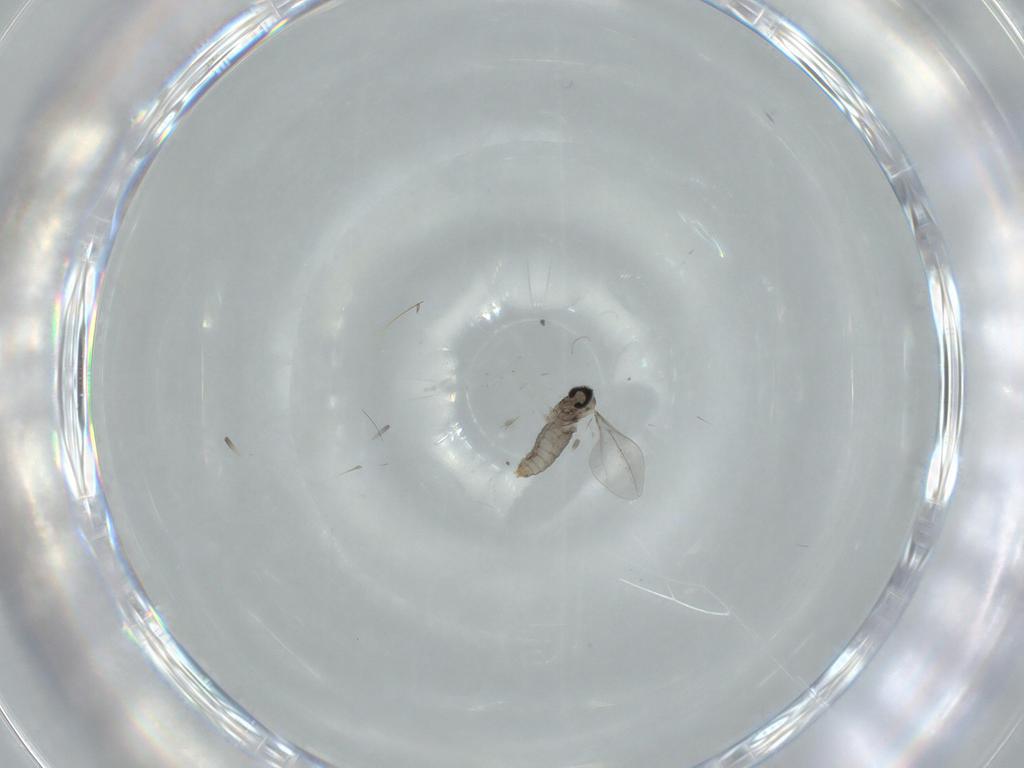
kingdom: Animalia
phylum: Arthropoda
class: Insecta
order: Diptera
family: Cecidomyiidae
